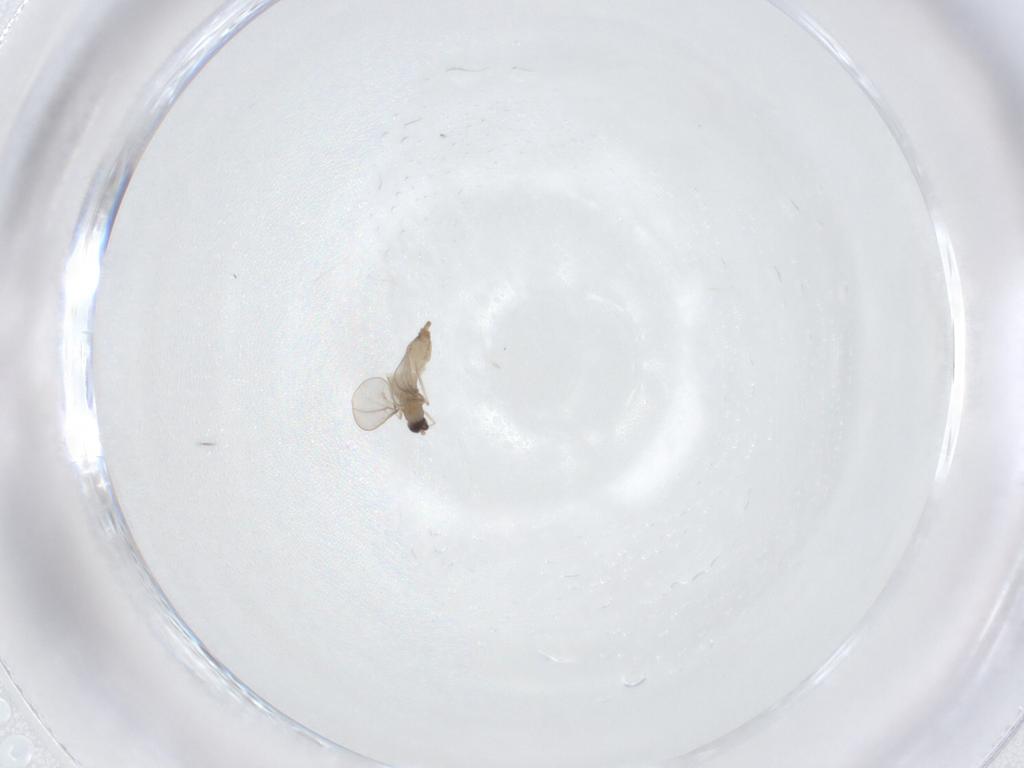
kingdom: Animalia
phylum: Arthropoda
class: Insecta
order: Diptera
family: Cecidomyiidae
